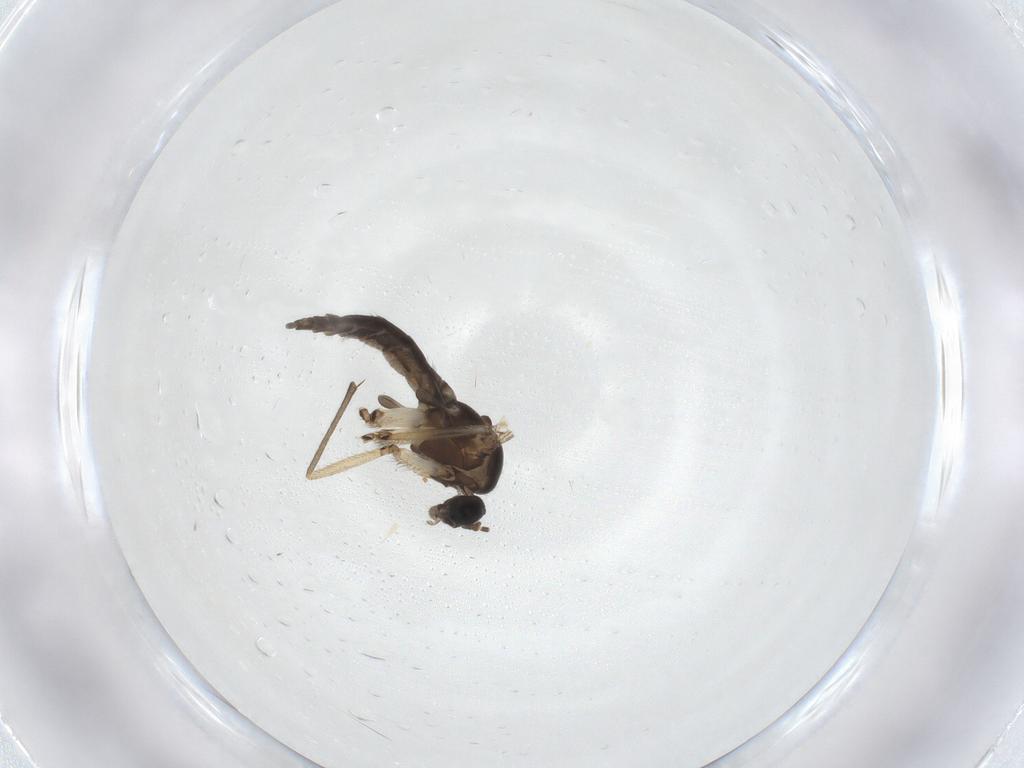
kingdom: Animalia
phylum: Arthropoda
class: Insecta
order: Diptera
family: Sciaridae
